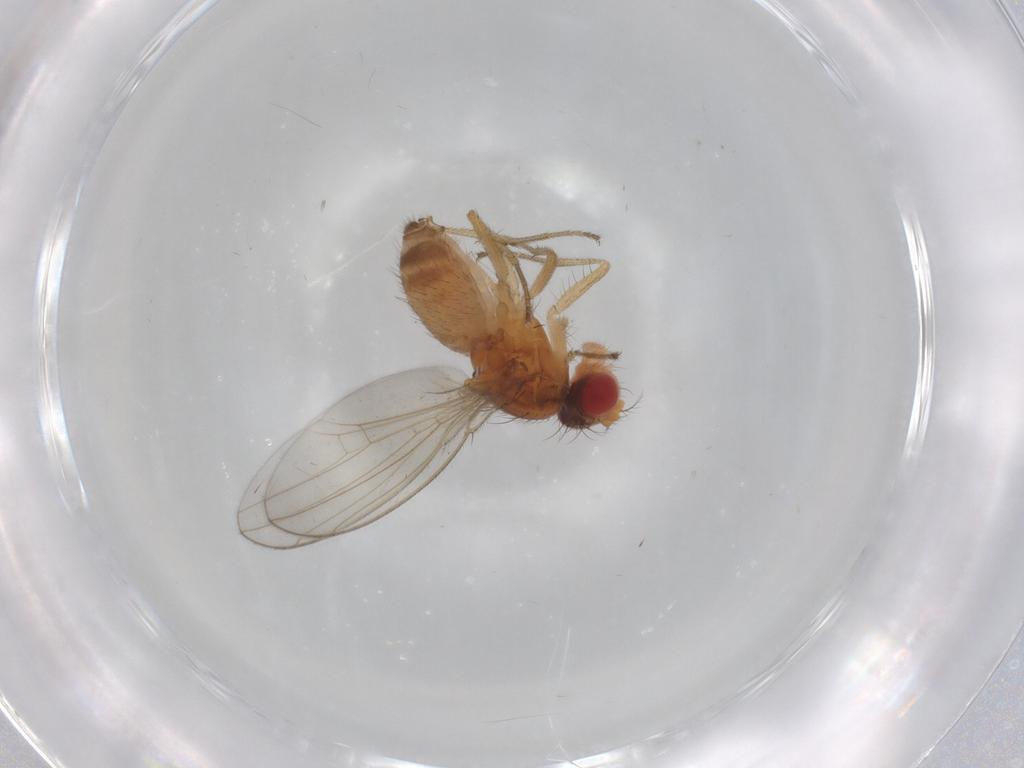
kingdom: Animalia
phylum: Arthropoda
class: Insecta
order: Diptera
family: Drosophilidae
